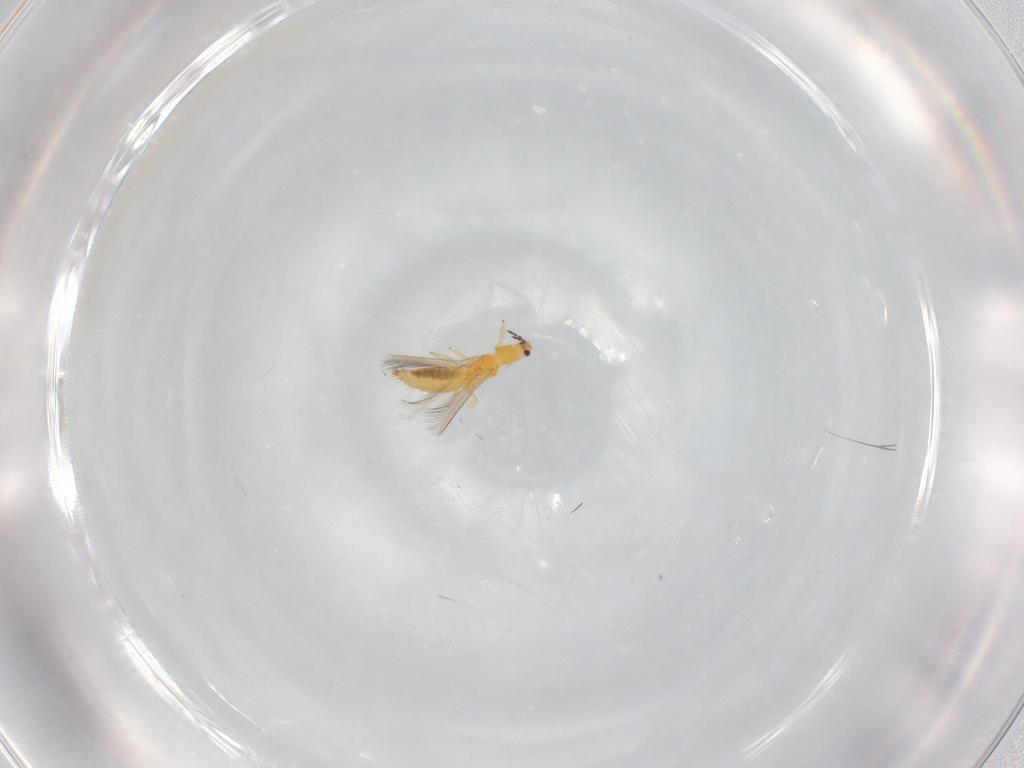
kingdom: Animalia
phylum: Arthropoda
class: Insecta
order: Thysanoptera
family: Thripidae
